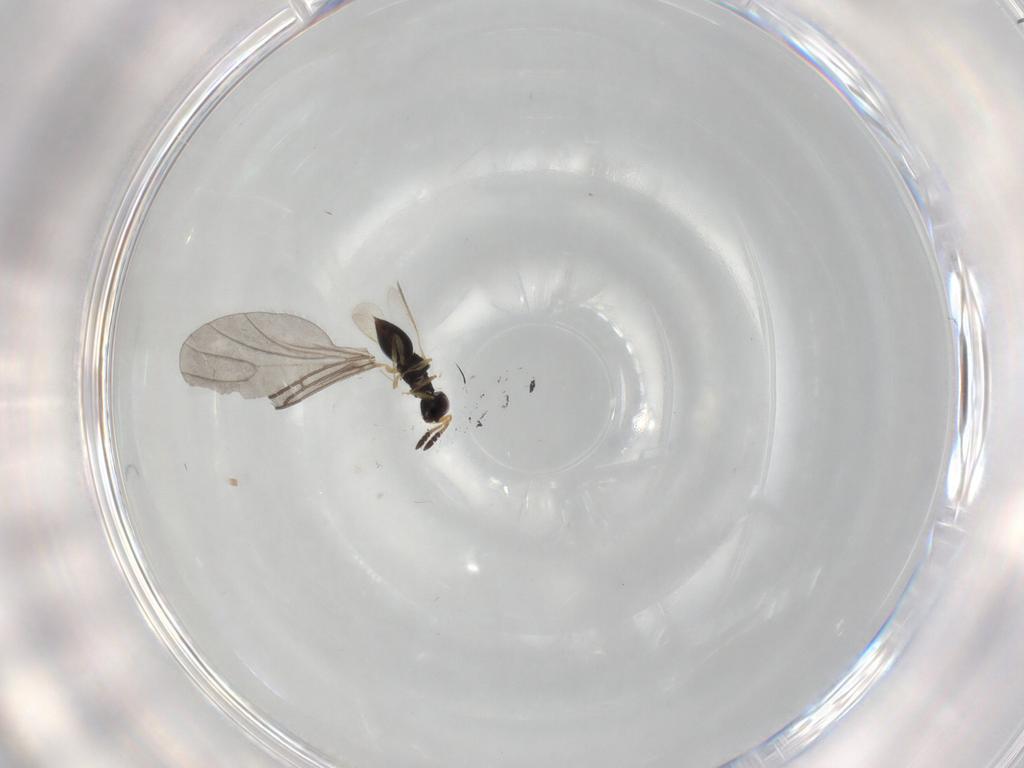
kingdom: Animalia
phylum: Arthropoda
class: Insecta
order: Hymenoptera
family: Ceraphronidae
